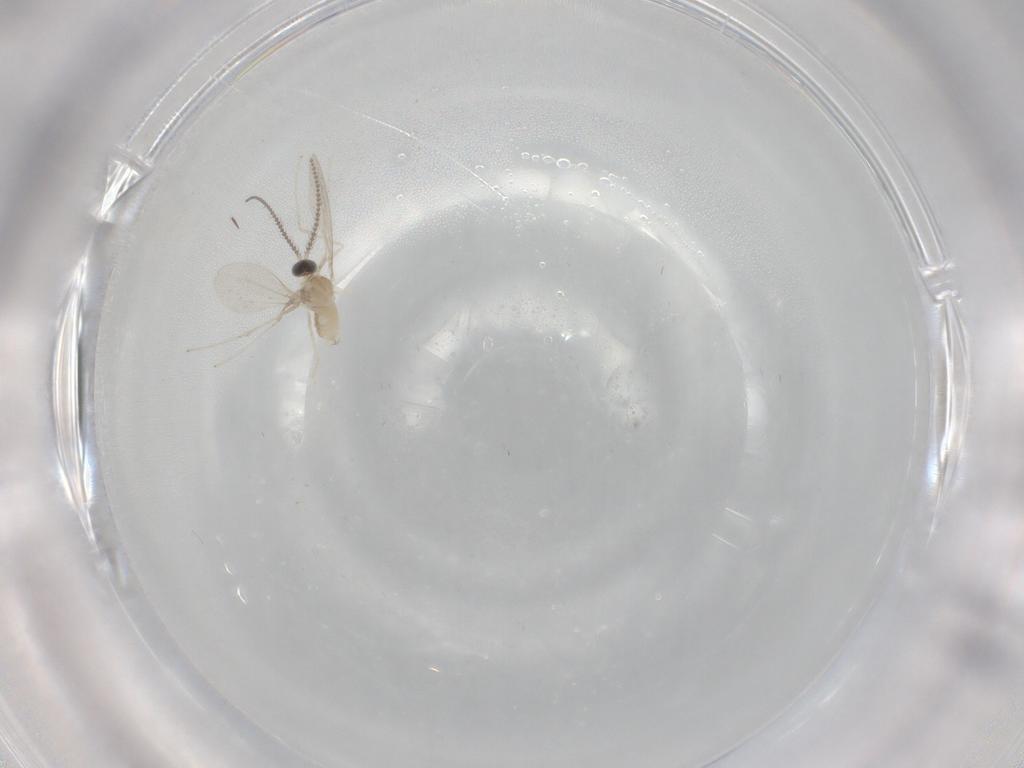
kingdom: Animalia
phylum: Arthropoda
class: Insecta
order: Diptera
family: Cecidomyiidae
